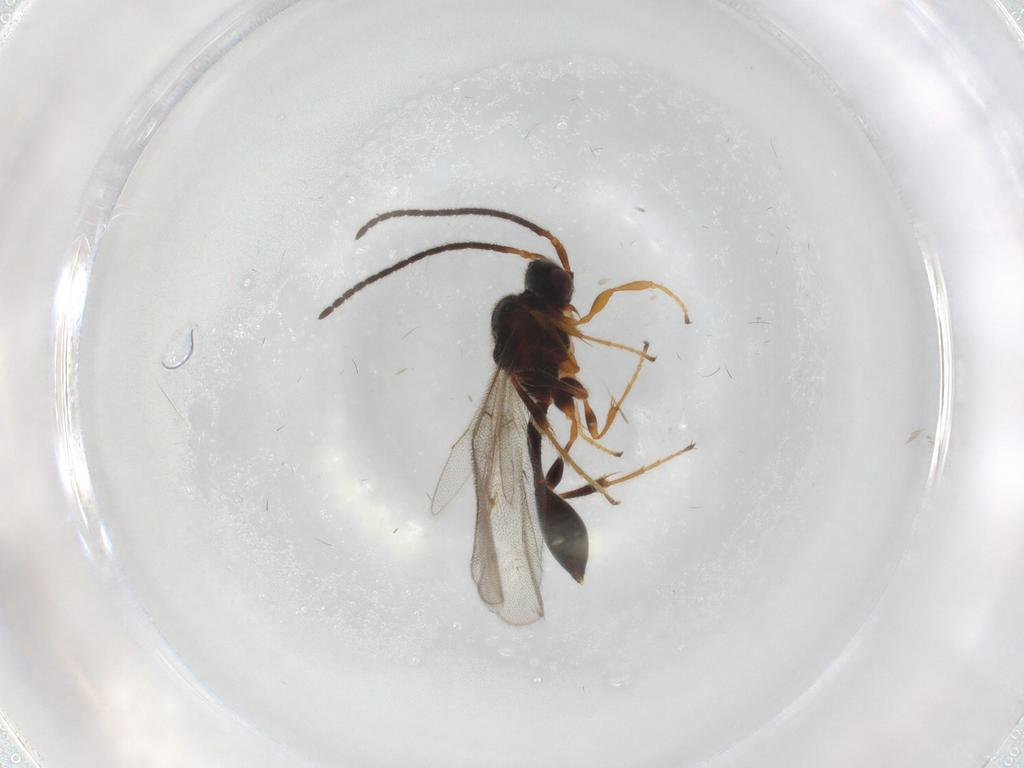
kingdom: Animalia
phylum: Arthropoda
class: Insecta
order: Hymenoptera
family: Diapriidae
